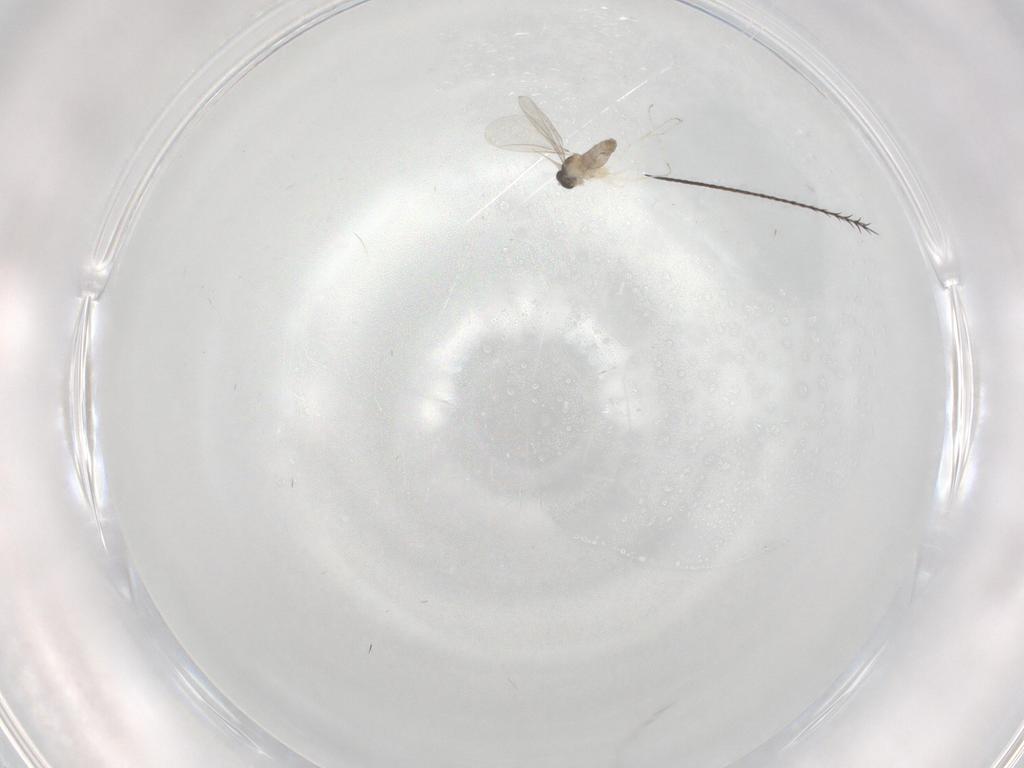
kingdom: Animalia
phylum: Arthropoda
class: Insecta
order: Diptera
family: Cecidomyiidae
